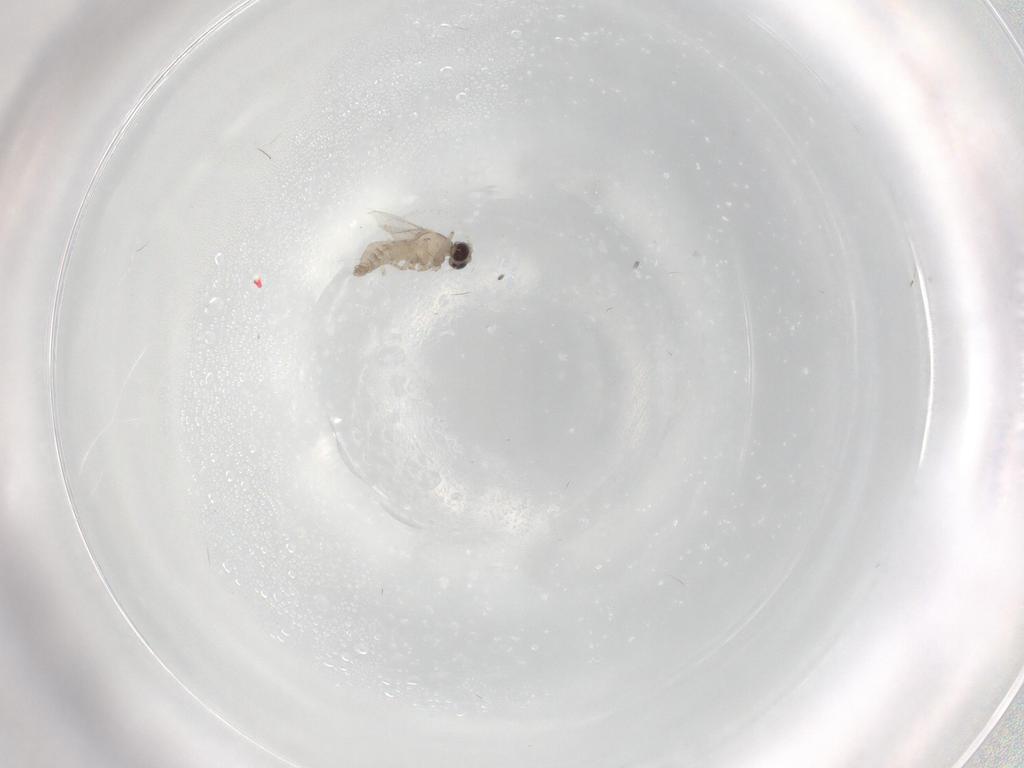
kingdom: Animalia
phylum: Arthropoda
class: Insecta
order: Diptera
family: Cecidomyiidae
